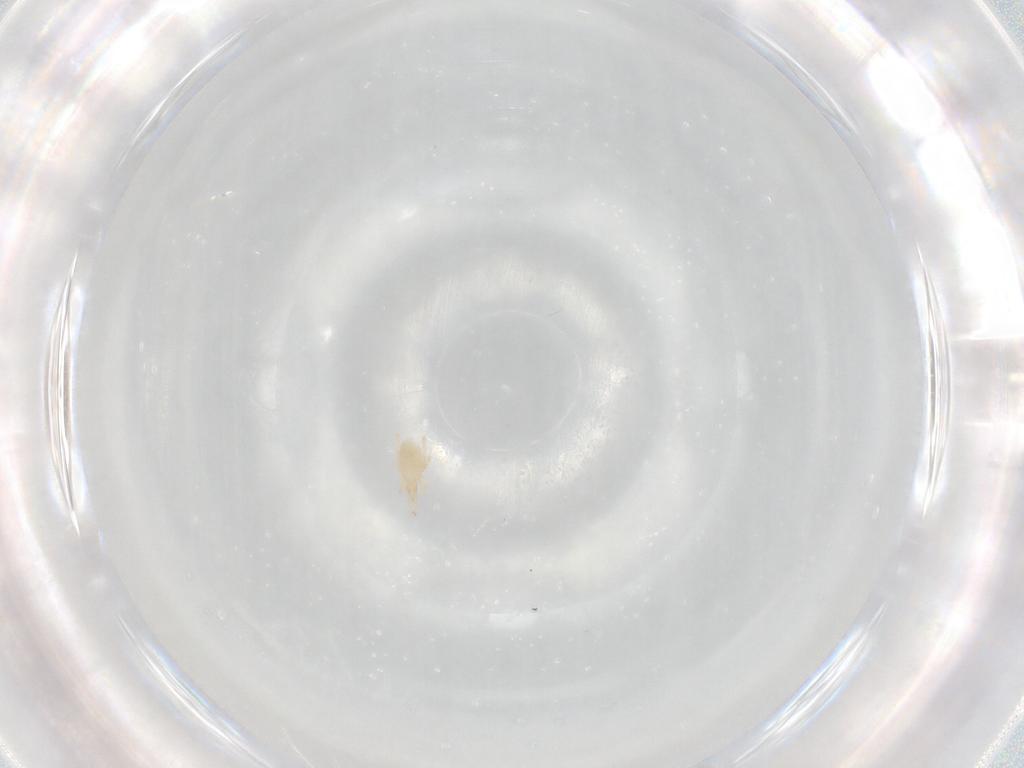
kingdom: Animalia
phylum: Arthropoda
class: Arachnida
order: Trombidiformes
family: Cunaxidae
